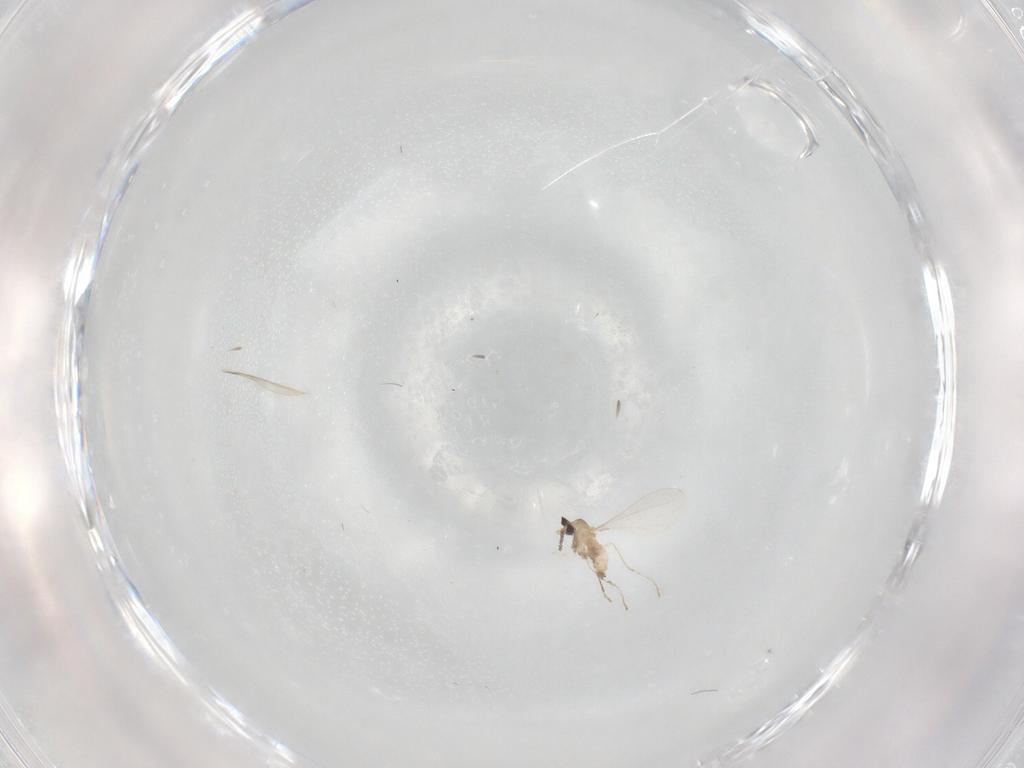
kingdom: Animalia
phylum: Arthropoda
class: Insecta
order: Diptera
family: Cecidomyiidae
